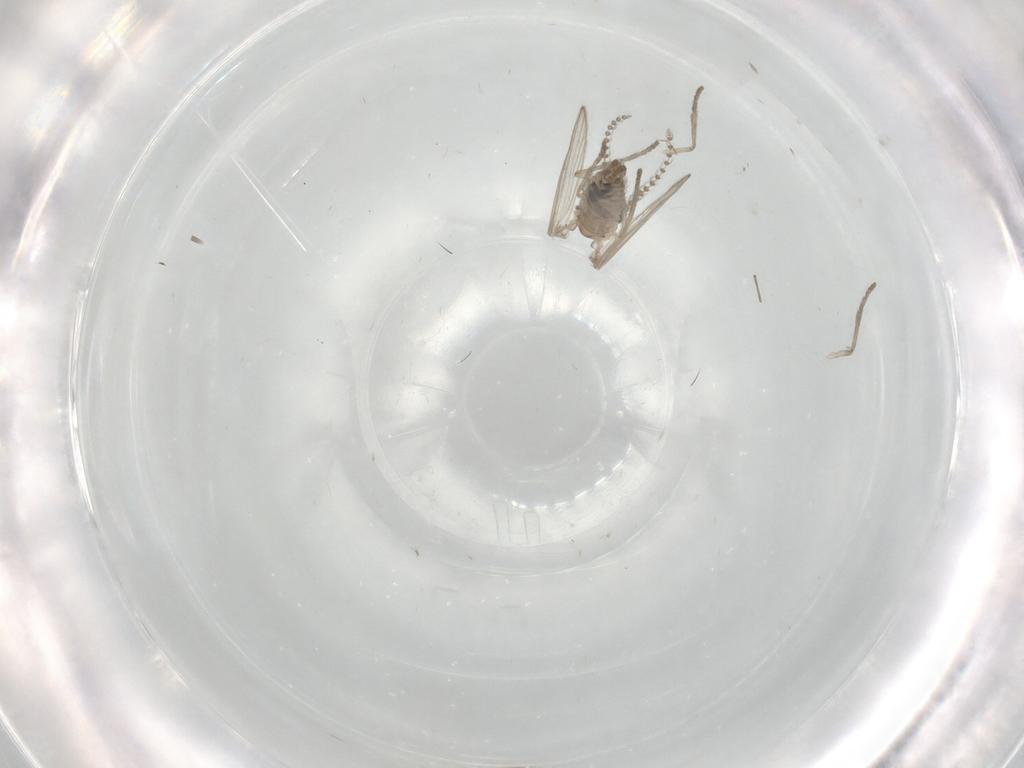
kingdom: Animalia
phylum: Arthropoda
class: Insecta
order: Diptera
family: Psychodidae
